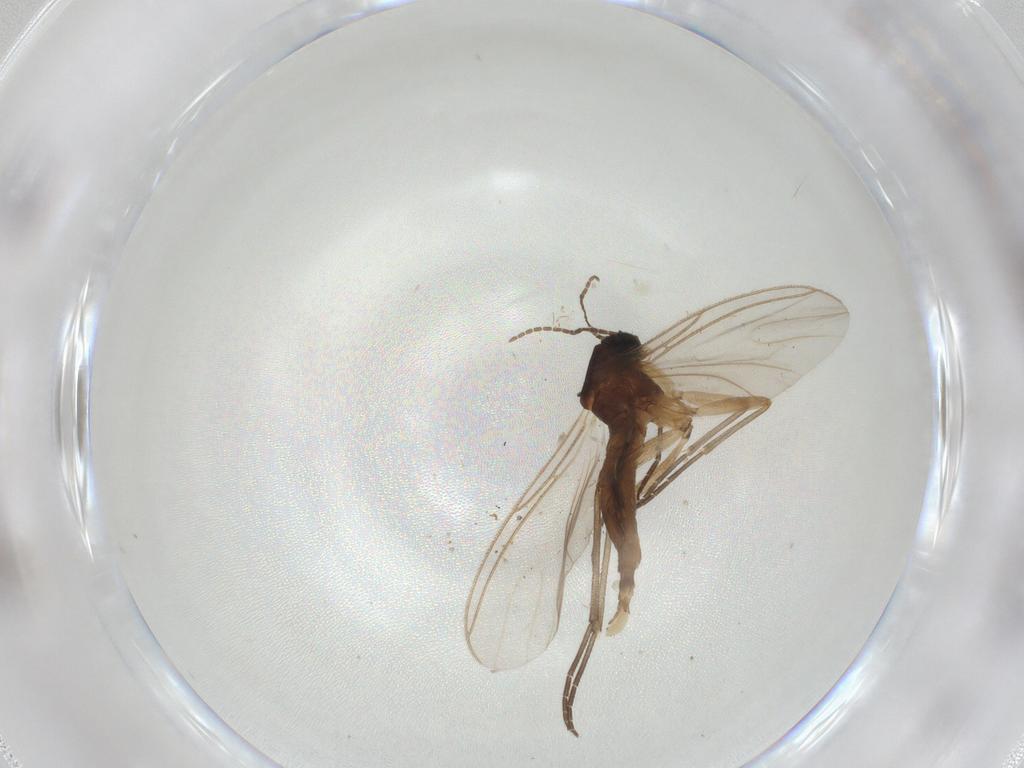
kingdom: Animalia
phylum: Arthropoda
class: Insecta
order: Diptera
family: Sciaridae
